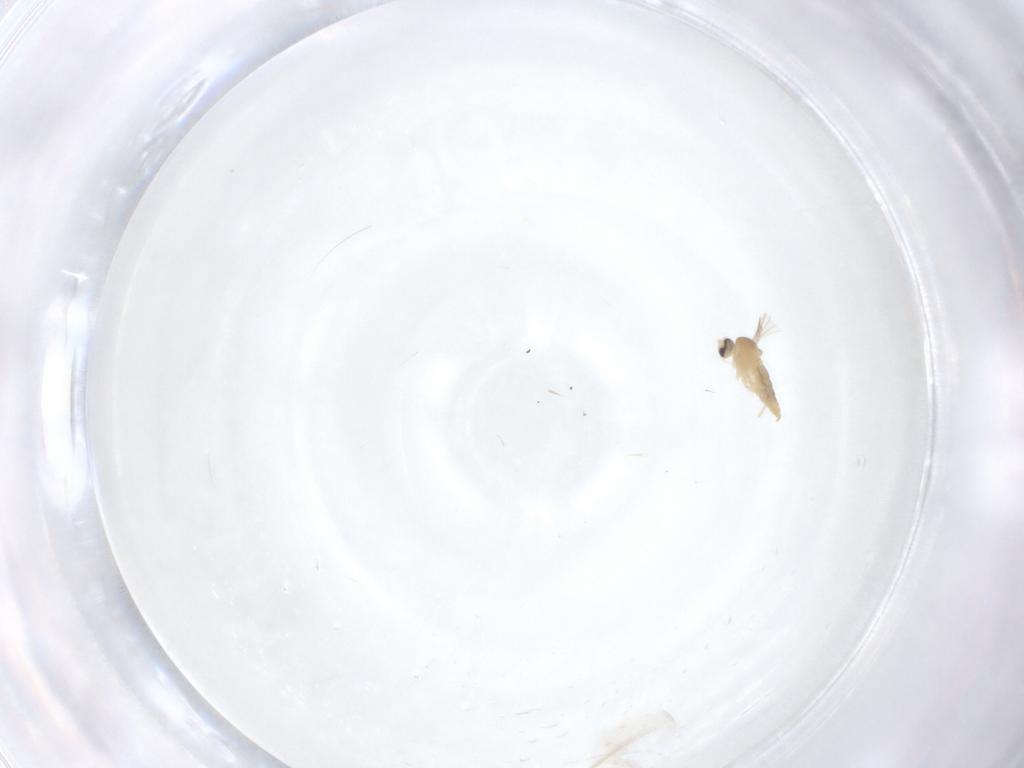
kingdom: Animalia
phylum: Arthropoda
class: Insecta
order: Diptera
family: Cecidomyiidae
